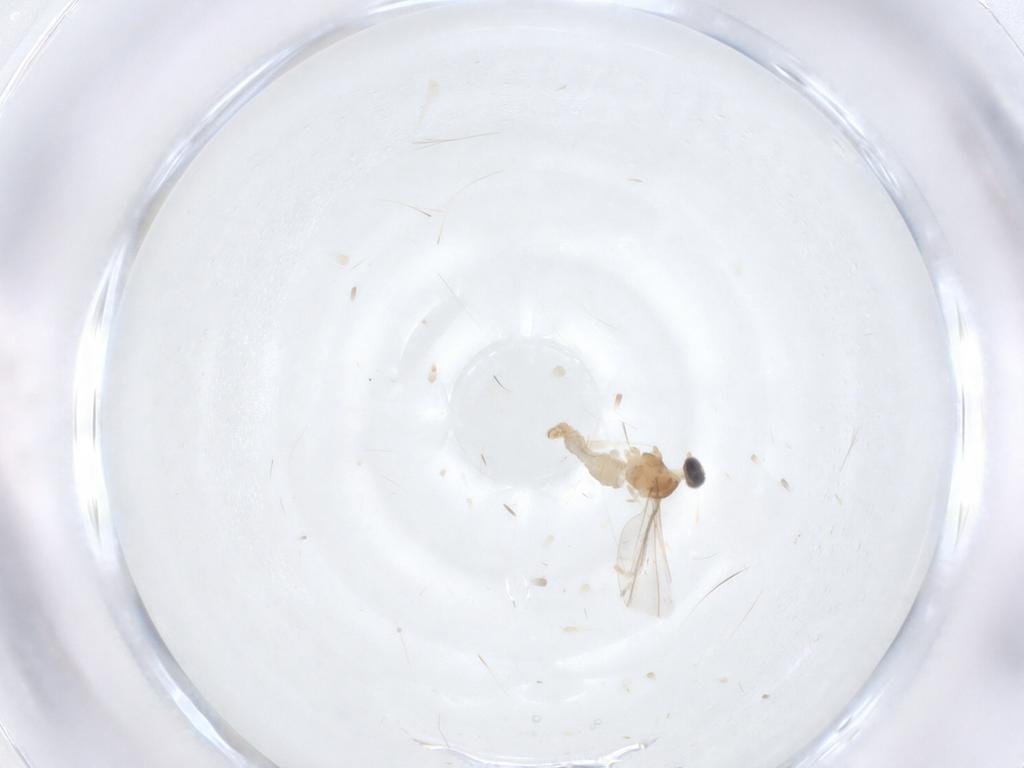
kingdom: Animalia
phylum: Arthropoda
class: Insecta
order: Diptera
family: Cecidomyiidae
